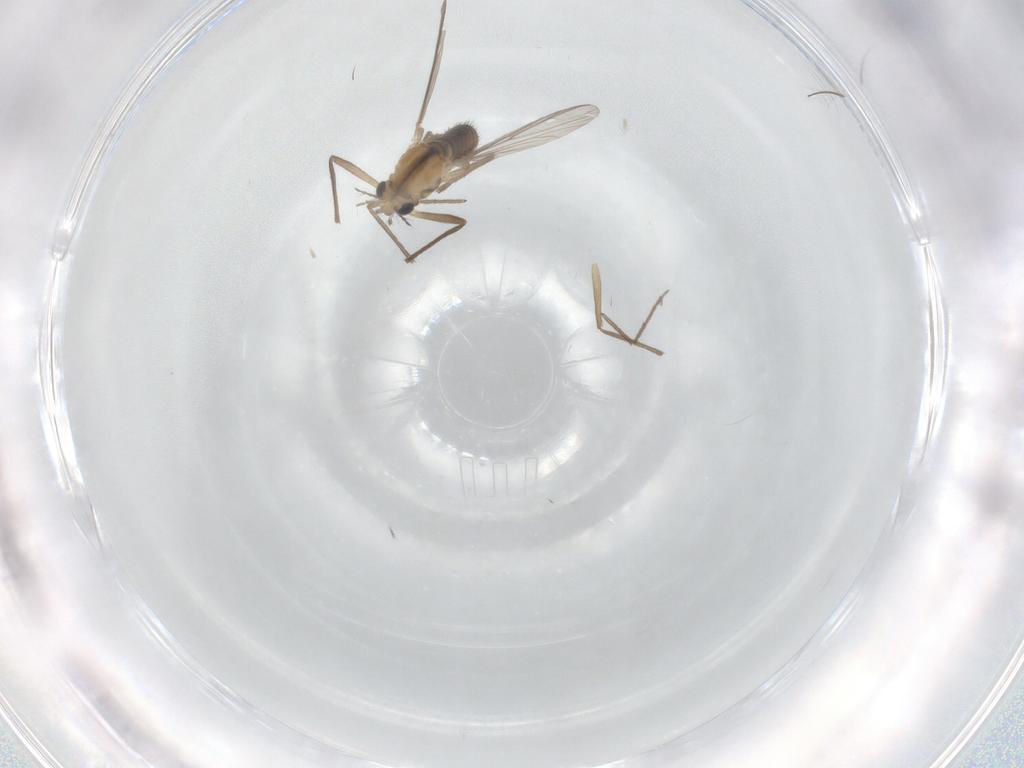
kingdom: Animalia
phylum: Arthropoda
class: Insecta
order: Diptera
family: Chironomidae
